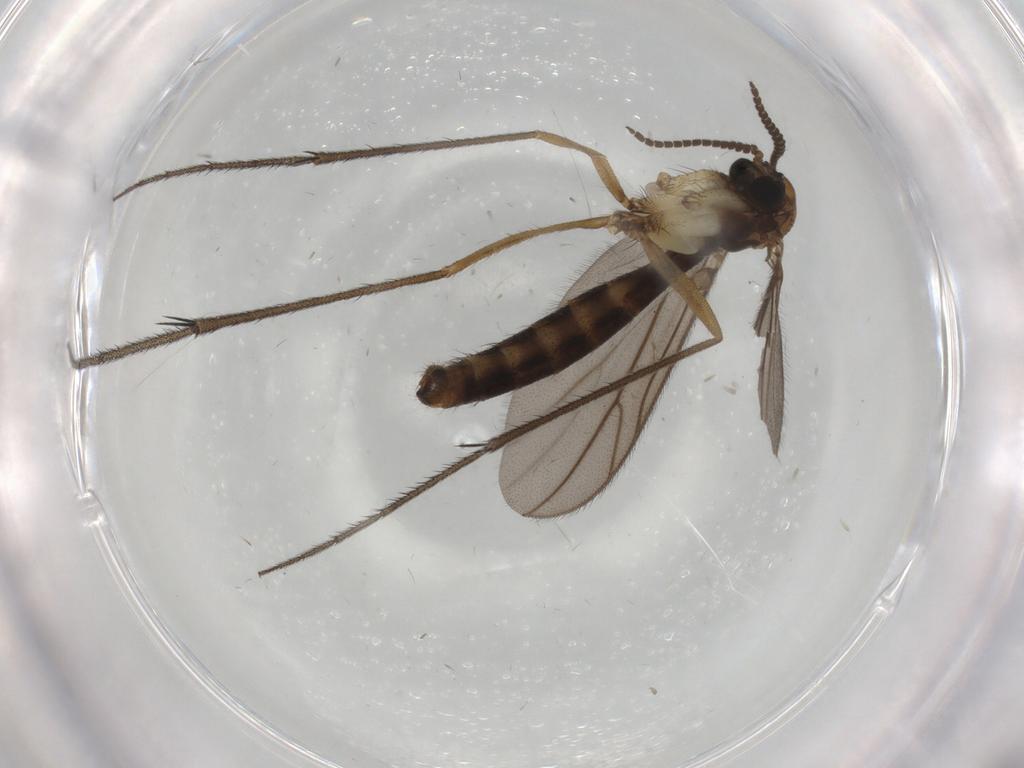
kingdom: Animalia
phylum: Arthropoda
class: Insecta
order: Diptera
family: Ditomyiidae
